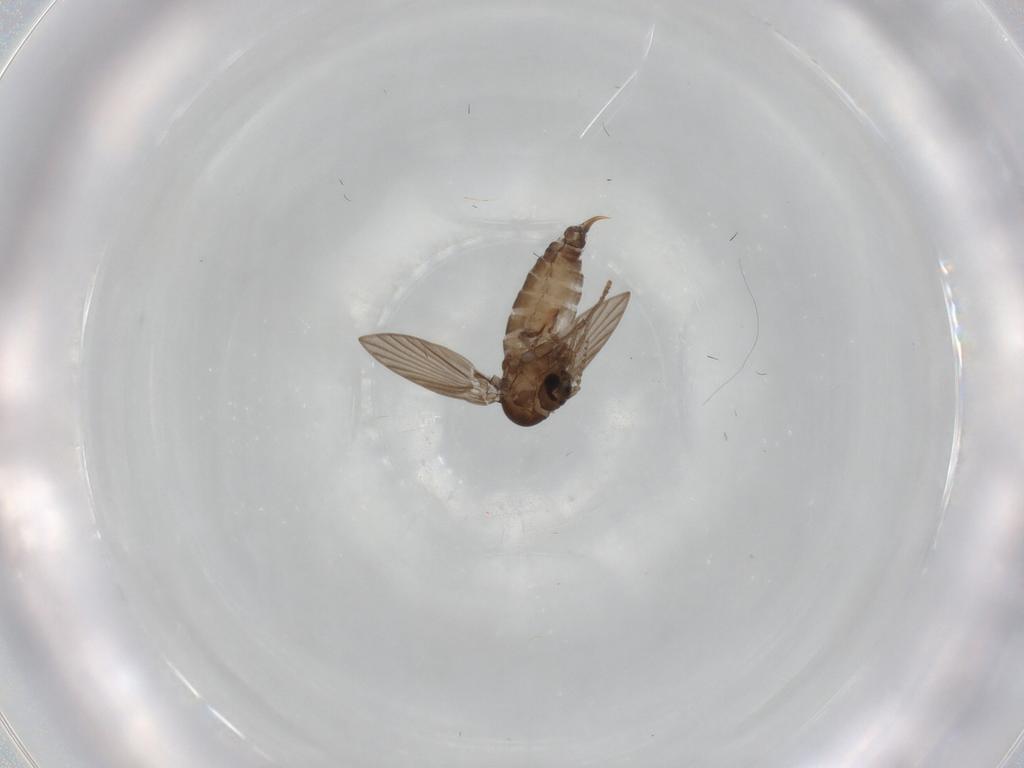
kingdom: Animalia
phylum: Arthropoda
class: Insecta
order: Diptera
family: Psychodidae
